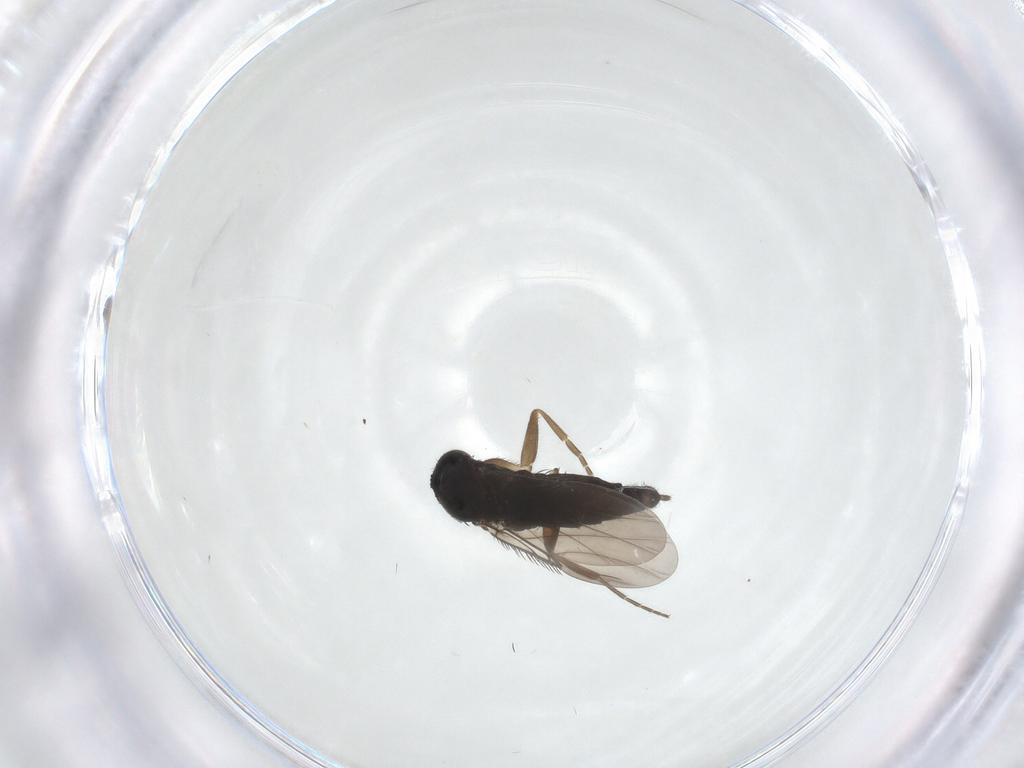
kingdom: Animalia
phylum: Arthropoda
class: Insecta
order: Diptera
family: Phoridae
